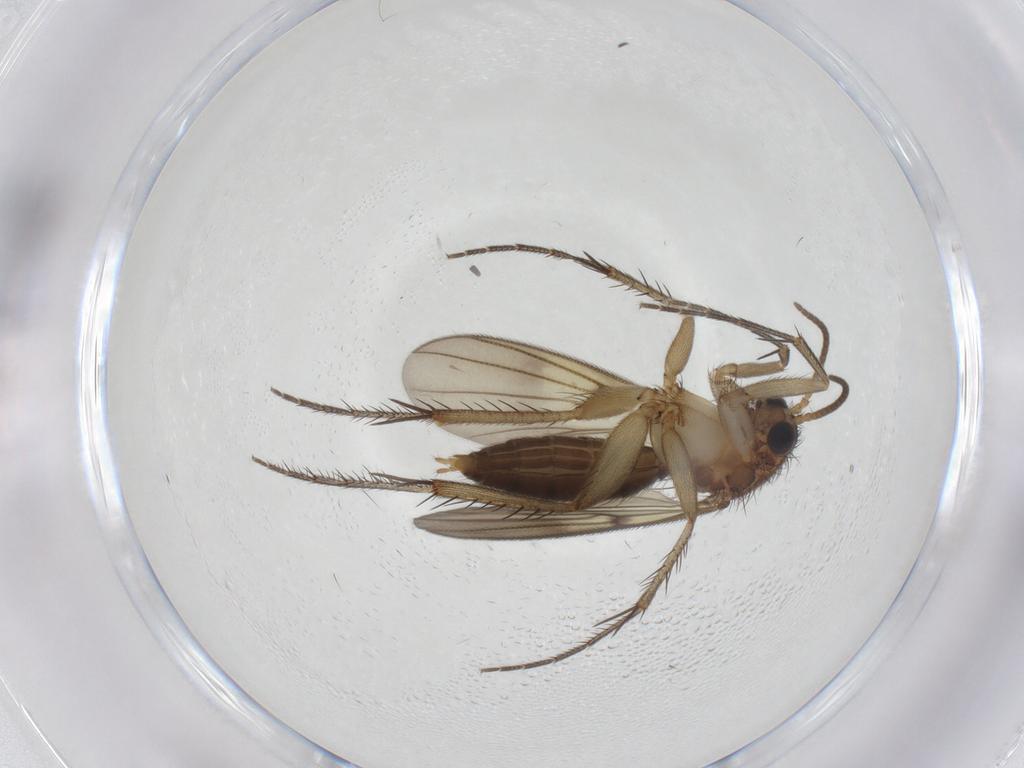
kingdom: Animalia
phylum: Arthropoda
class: Insecta
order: Diptera
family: Mycetophilidae
